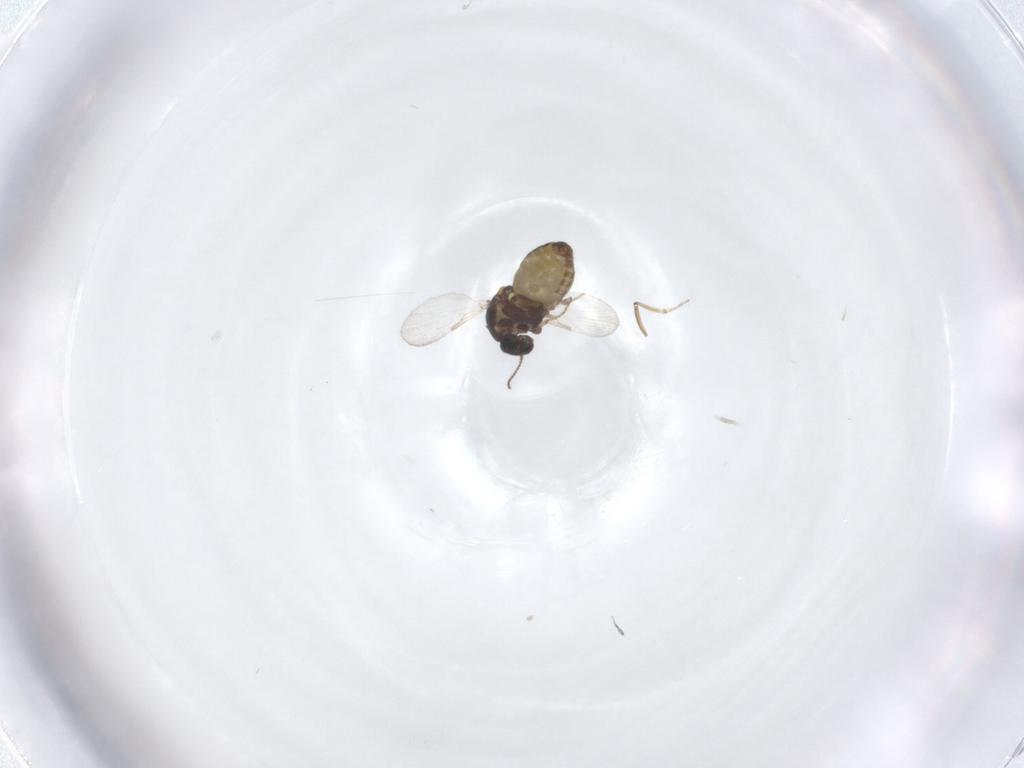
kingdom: Animalia
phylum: Arthropoda
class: Insecta
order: Diptera
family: Ceratopogonidae
